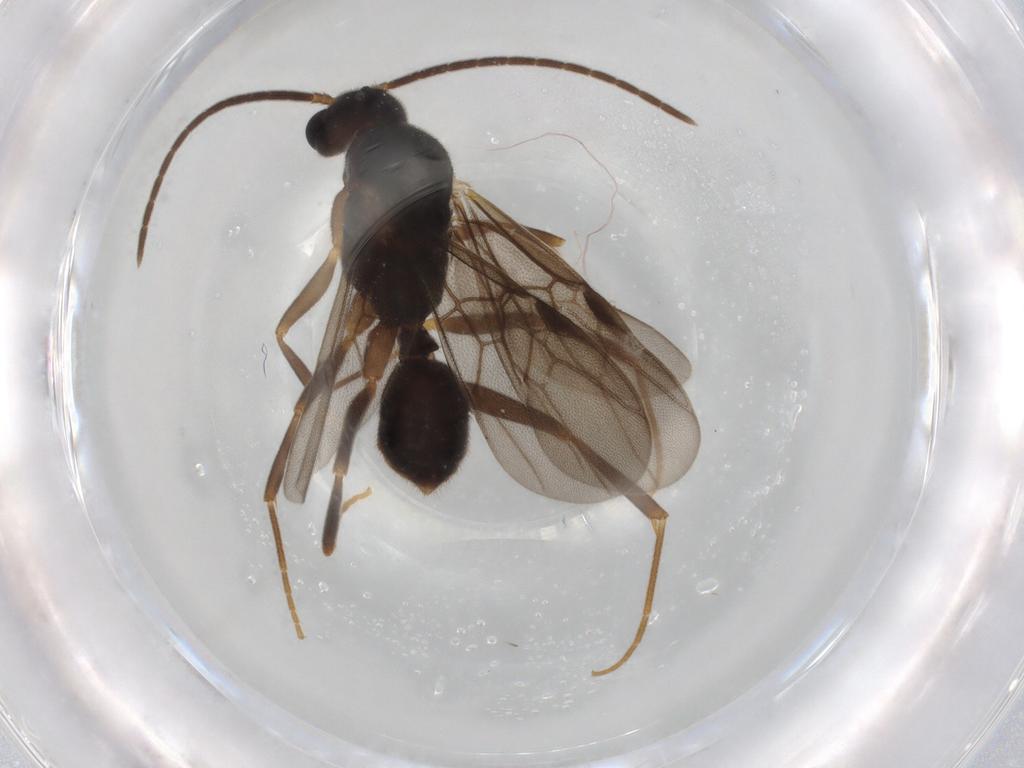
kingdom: Animalia
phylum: Arthropoda
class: Insecta
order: Hymenoptera
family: Formicidae
